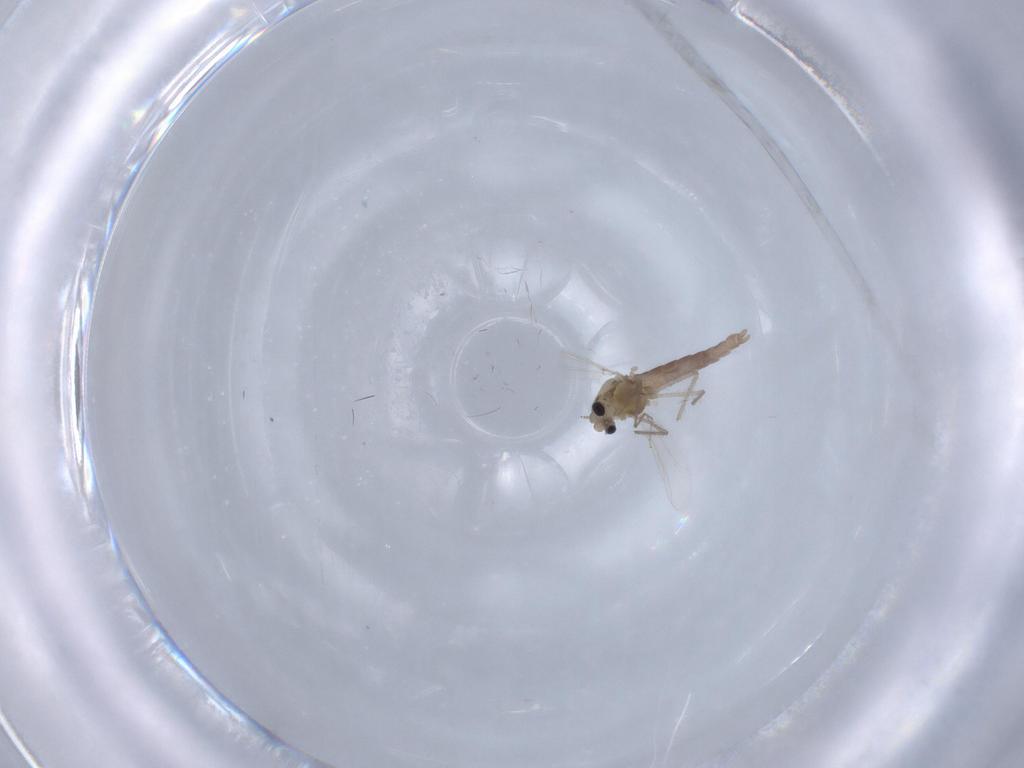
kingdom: Animalia
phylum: Arthropoda
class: Insecta
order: Diptera
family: Chironomidae
